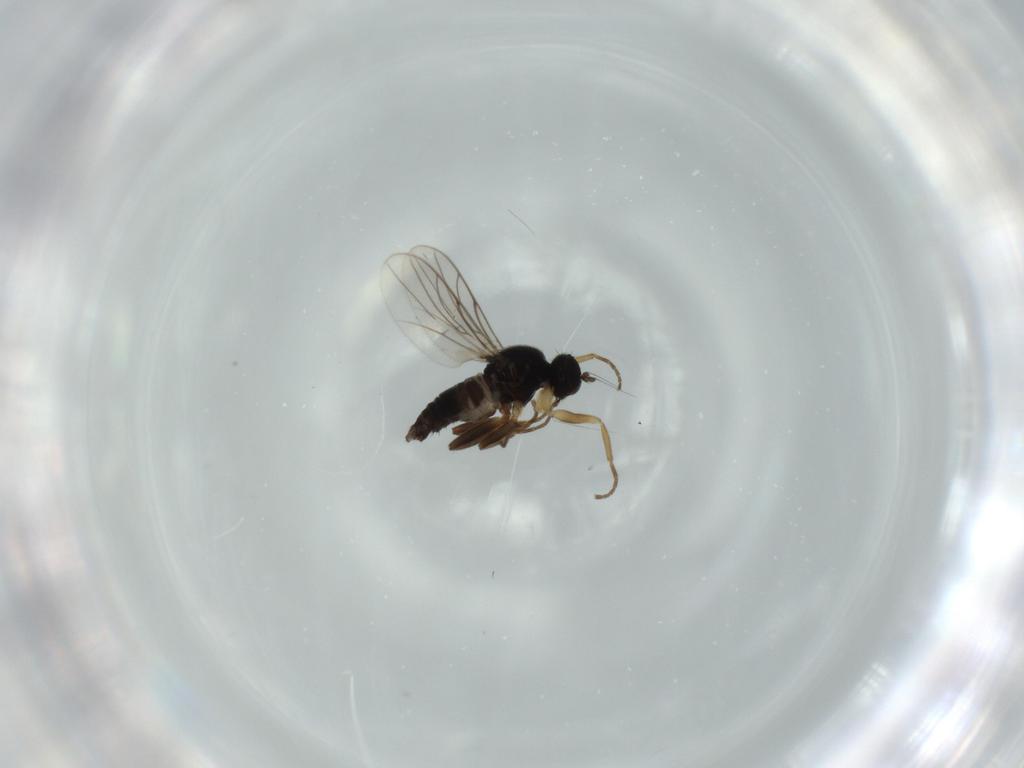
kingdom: Animalia
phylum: Arthropoda
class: Insecta
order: Diptera
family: Hybotidae
